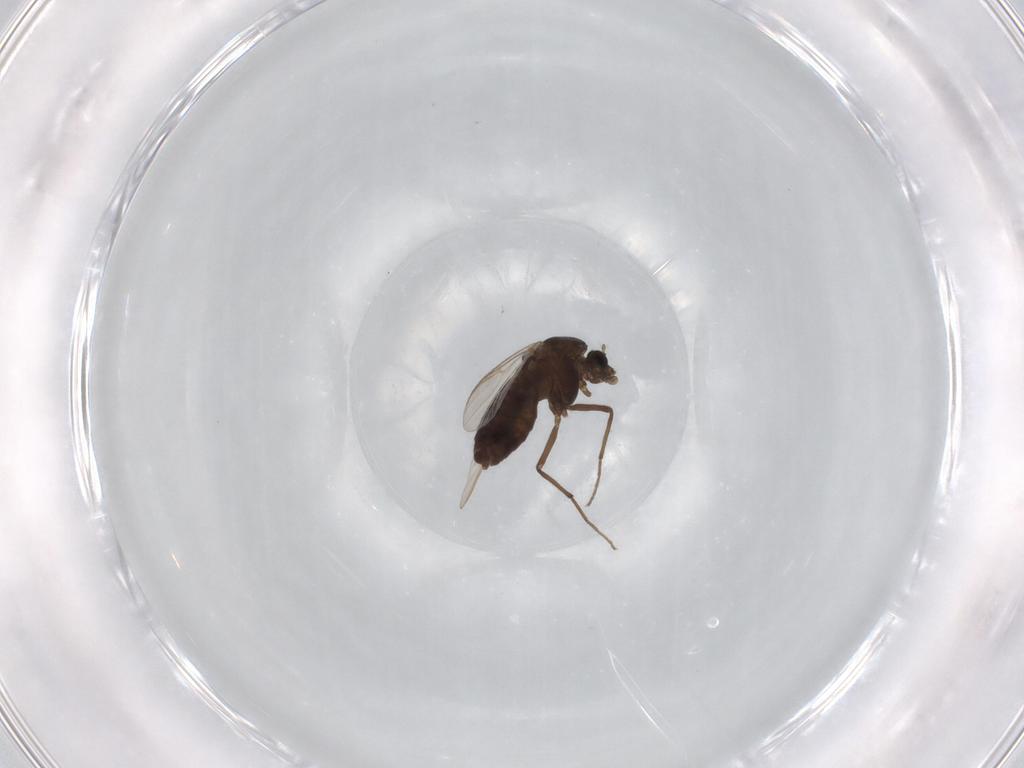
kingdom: Animalia
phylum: Arthropoda
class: Insecta
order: Diptera
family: Chironomidae
